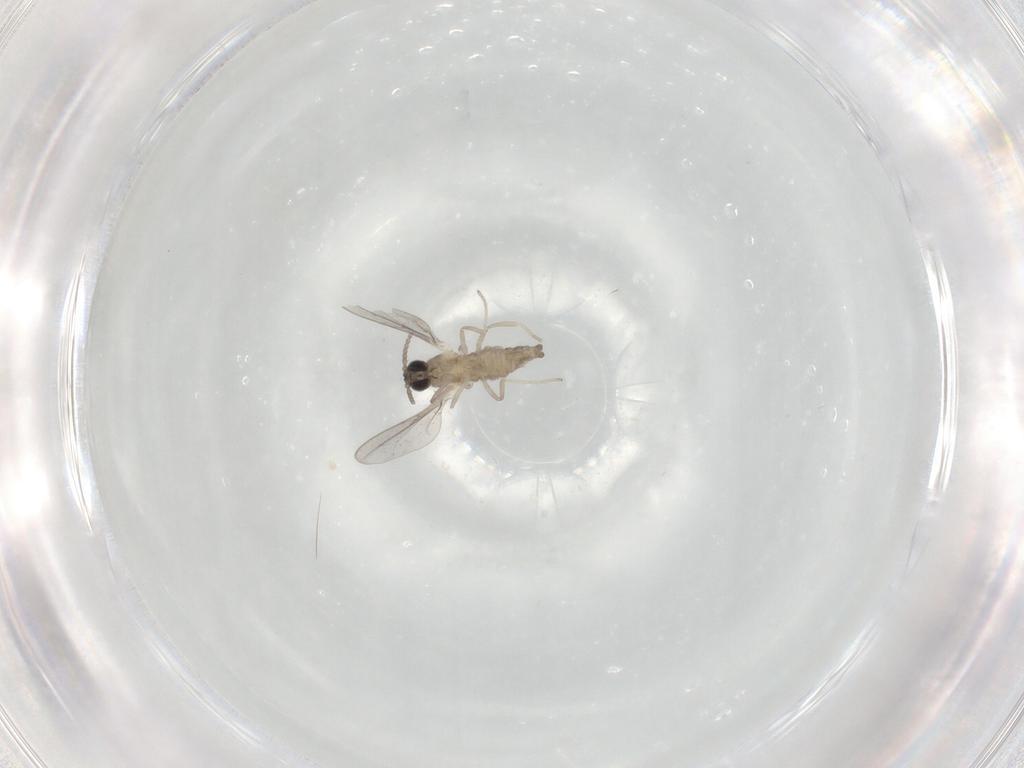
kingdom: Animalia
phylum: Arthropoda
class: Insecta
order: Diptera
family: Cecidomyiidae
